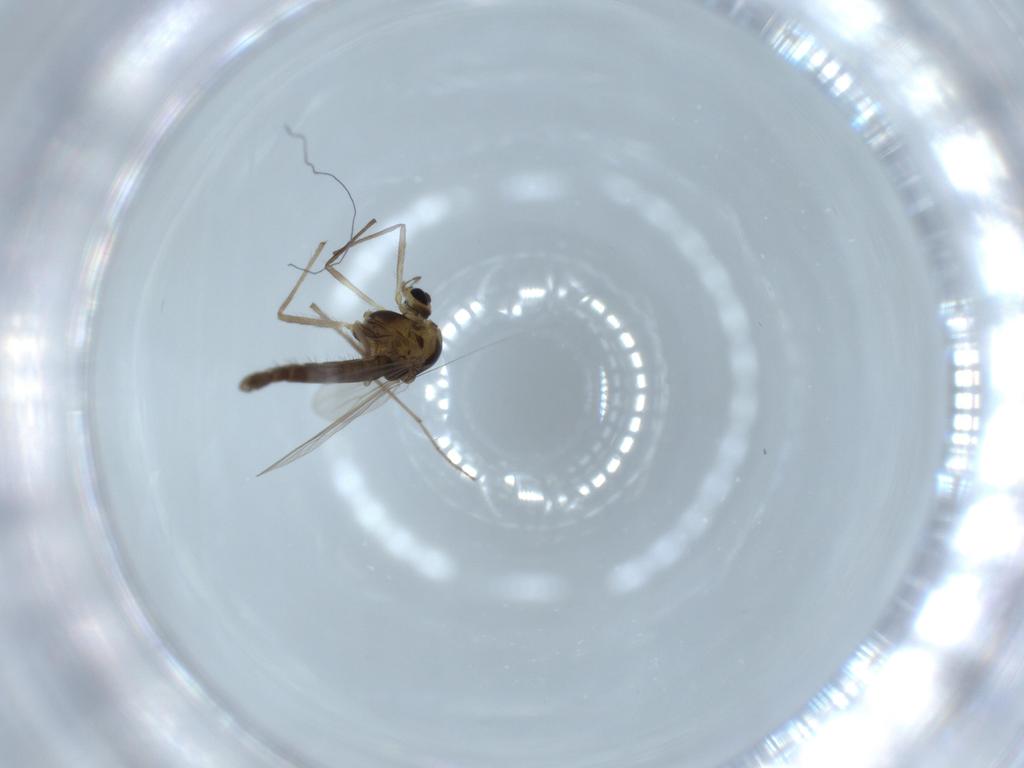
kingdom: Animalia
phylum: Arthropoda
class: Insecta
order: Diptera
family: Chironomidae
